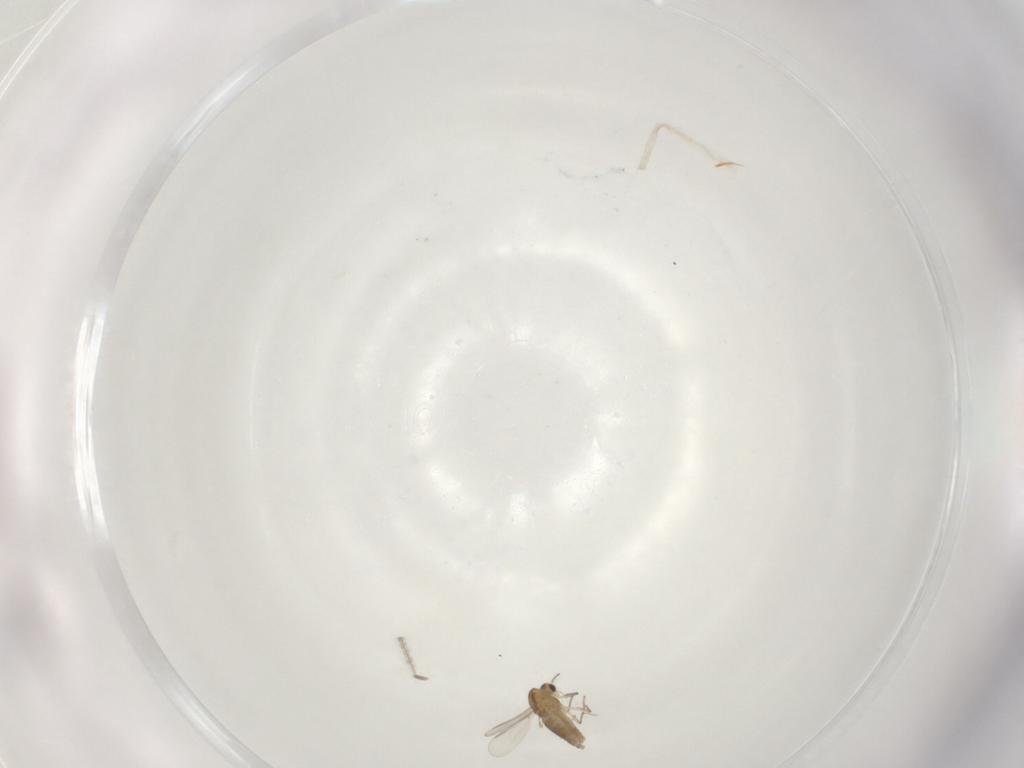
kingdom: Animalia
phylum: Arthropoda
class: Insecta
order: Diptera
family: Chironomidae
